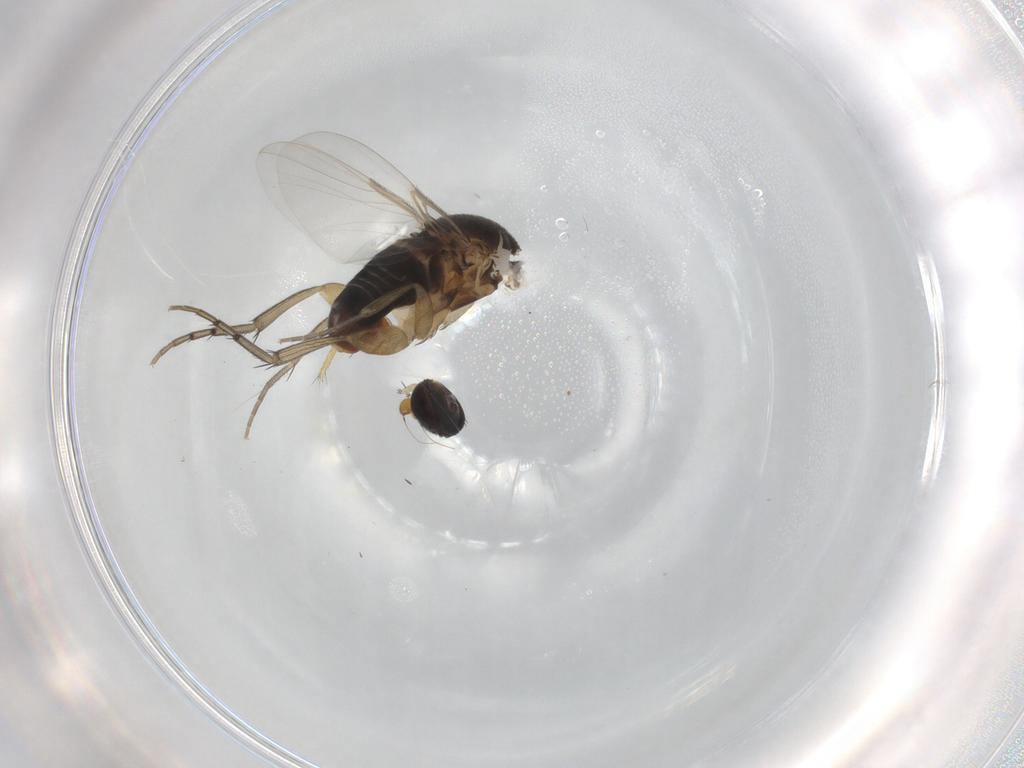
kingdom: Animalia
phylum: Arthropoda
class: Insecta
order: Diptera
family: Phoridae
